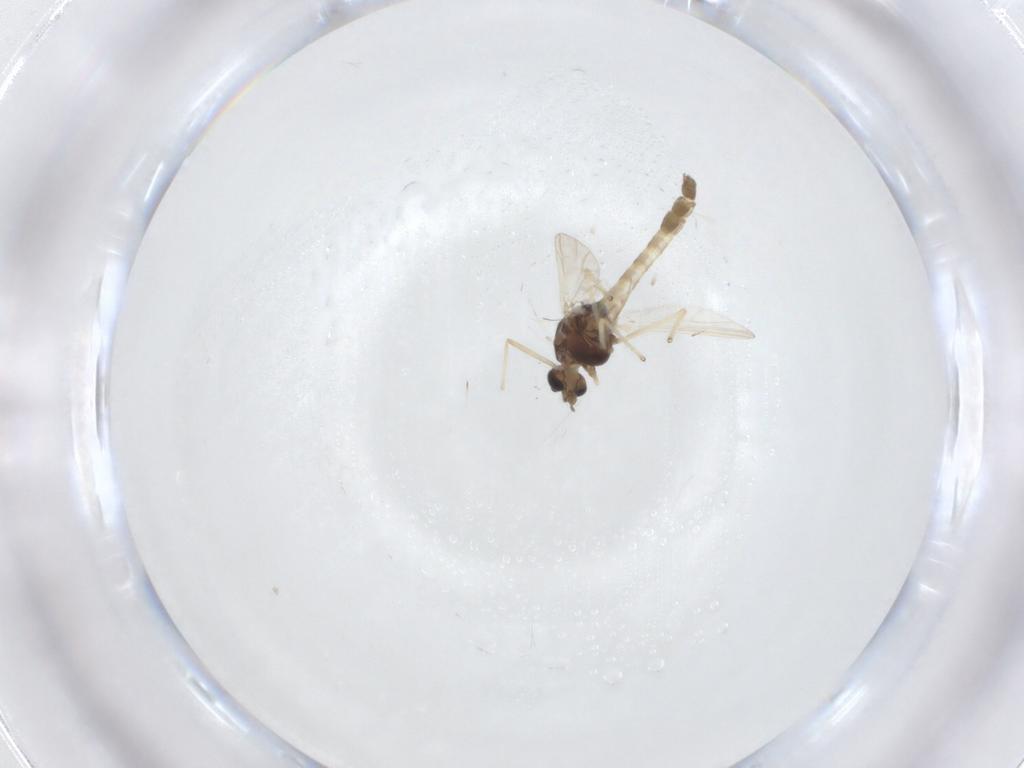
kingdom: Animalia
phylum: Arthropoda
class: Insecta
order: Diptera
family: Chironomidae
